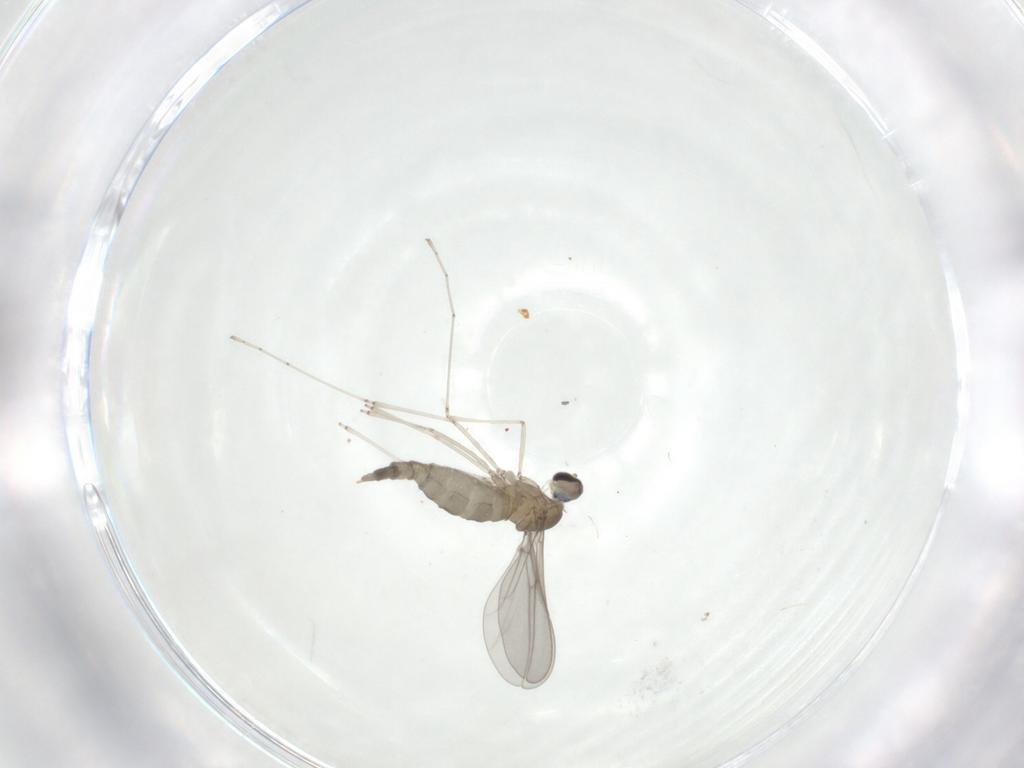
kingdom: Animalia
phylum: Arthropoda
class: Insecta
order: Diptera
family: Cecidomyiidae
